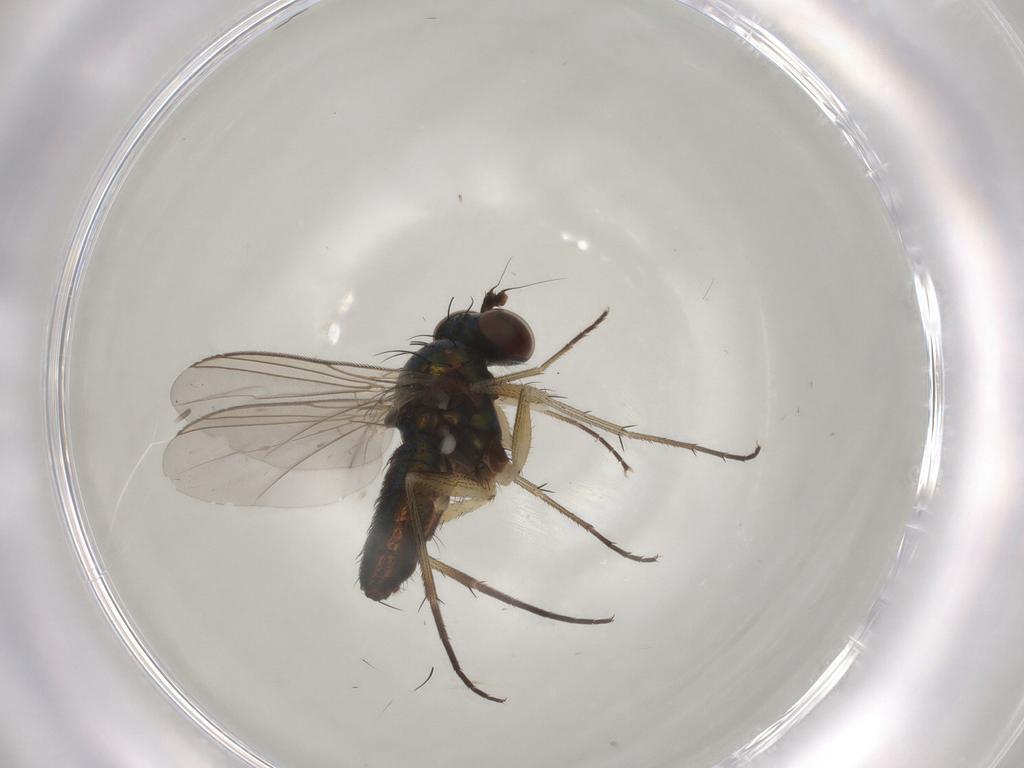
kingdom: Animalia
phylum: Arthropoda
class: Insecta
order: Diptera
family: Dolichopodidae
